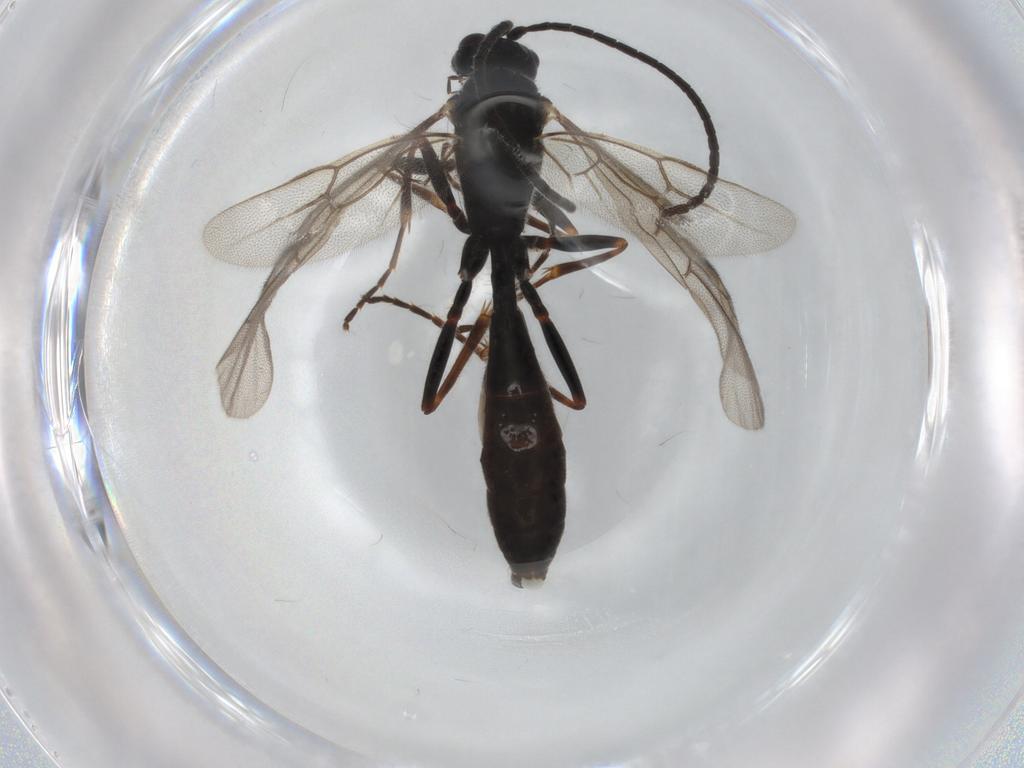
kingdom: Animalia
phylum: Arthropoda
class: Insecta
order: Hymenoptera
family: Ichneumonidae
